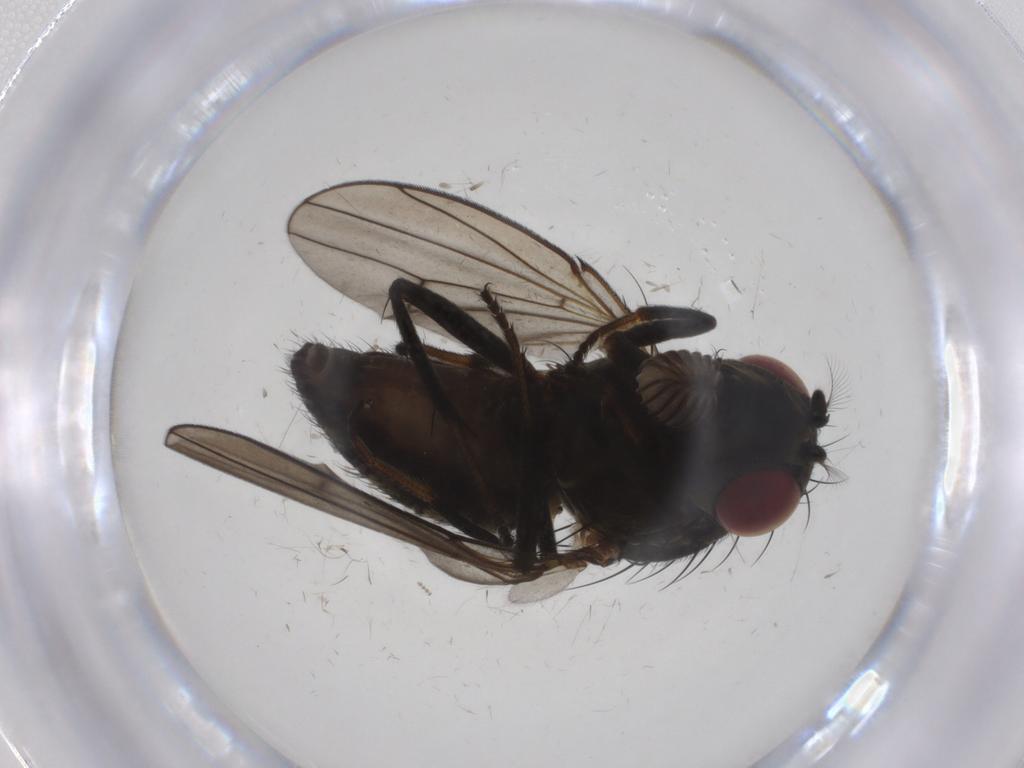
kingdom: Animalia
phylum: Arthropoda
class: Insecta
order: Diptera
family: Ephydridae
